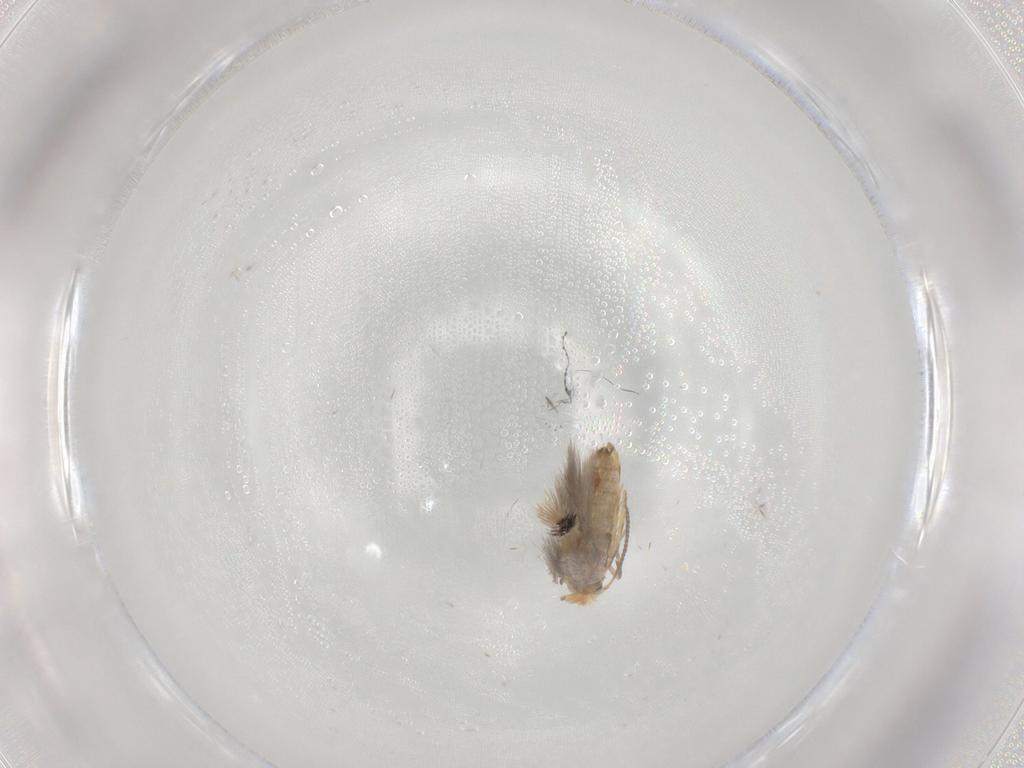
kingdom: Animalia
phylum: Arthropoda
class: Insecta
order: Lepidoptera
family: Nepticulidae
